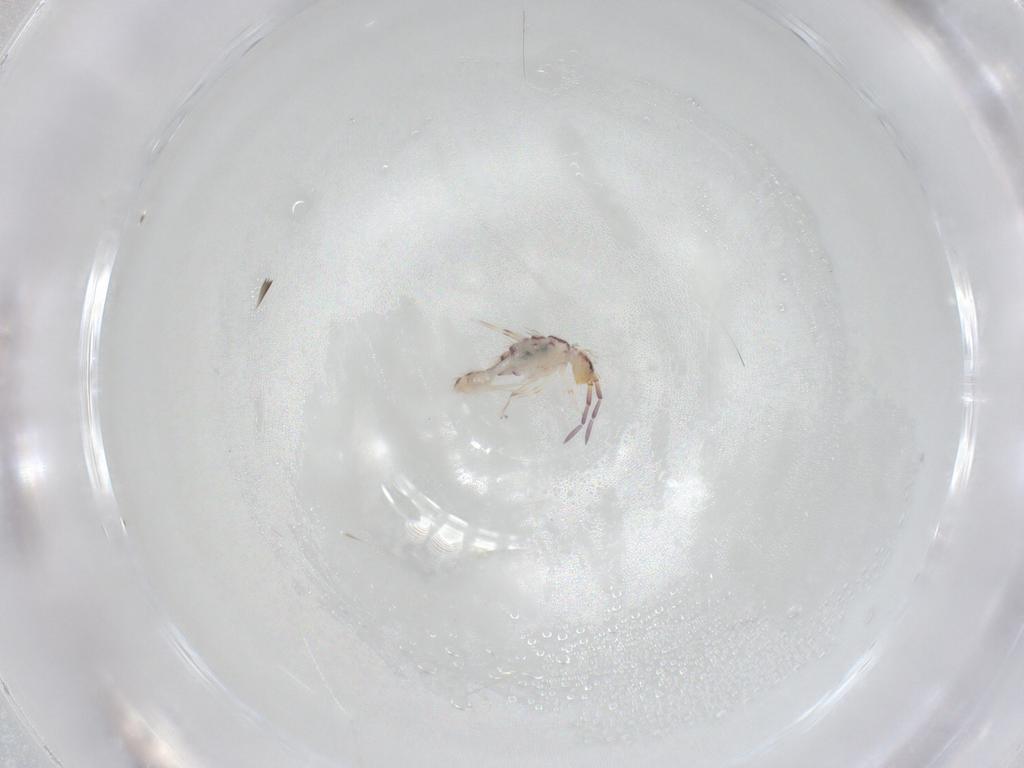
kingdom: Animalia
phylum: Arthropoda
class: Collembola
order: Entomobryomorpha
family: Entomobryidae
